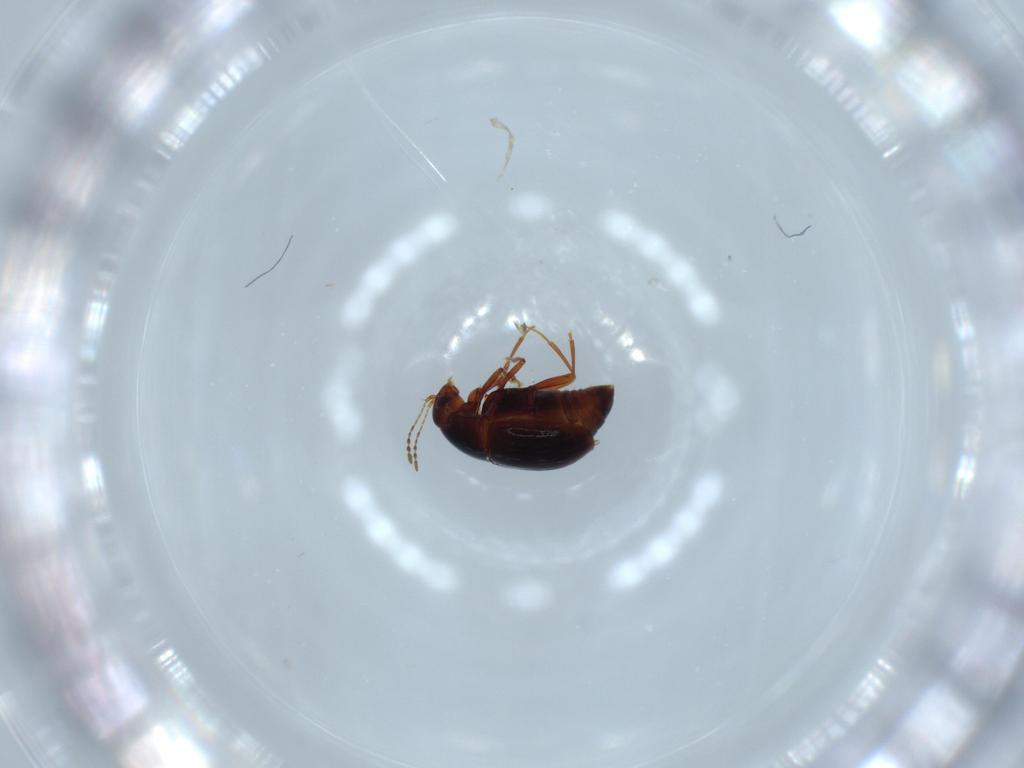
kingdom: Animalia
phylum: Arthropoda
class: Insecta
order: Coleoptera
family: Staphylinidae
